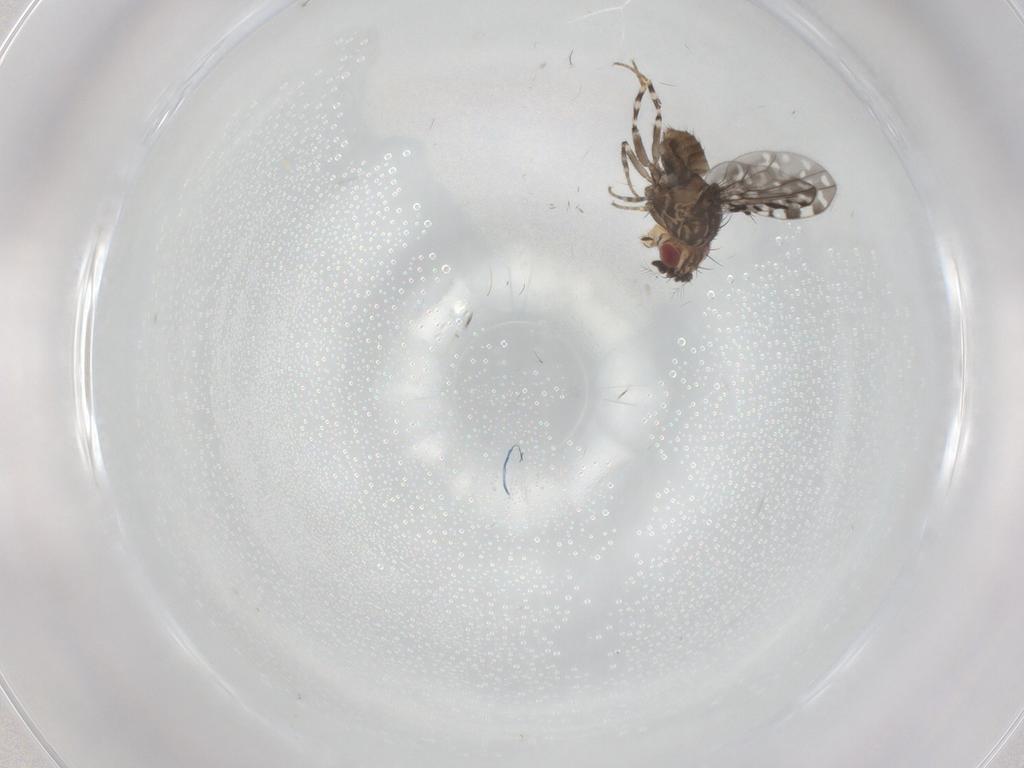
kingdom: Animalia
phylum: Arthropoda
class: Insecta
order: Diptera
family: Drosophilidae
